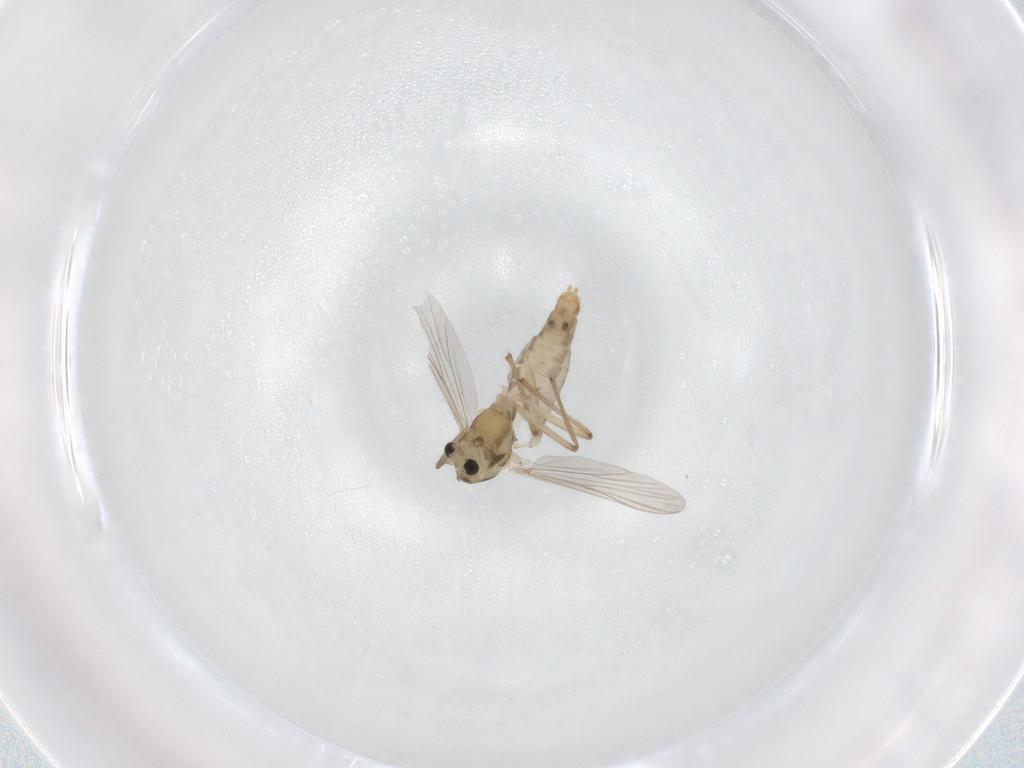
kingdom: Animalia
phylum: Arthropoda
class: Insecta
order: Diptera
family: Chironomidae
